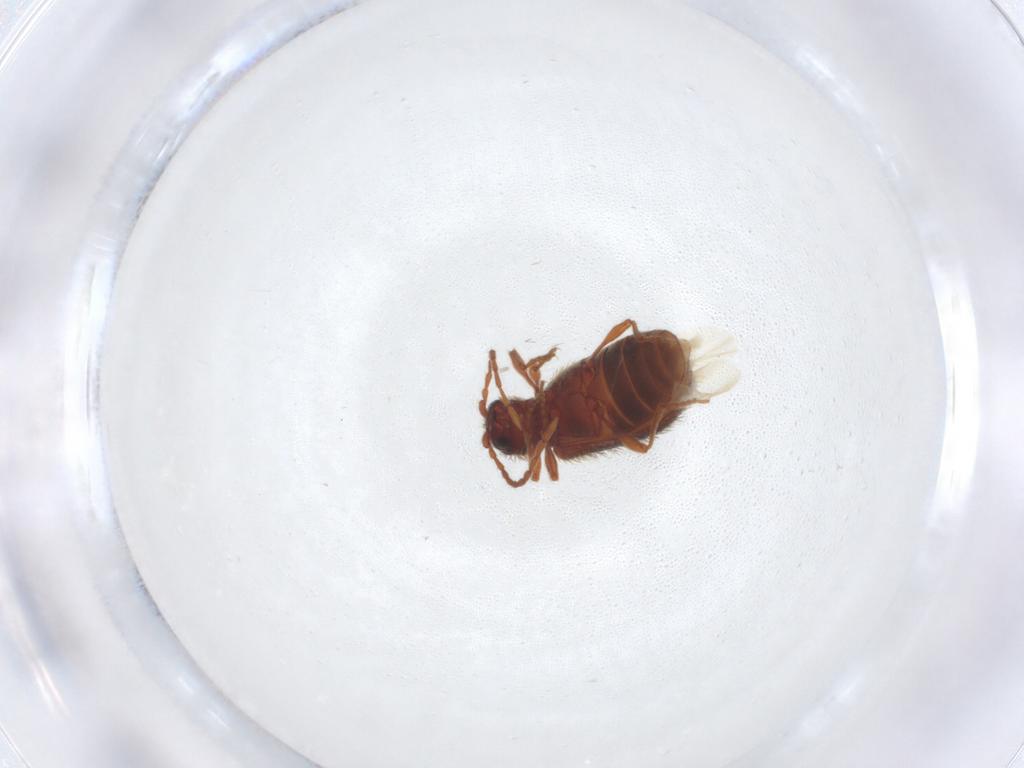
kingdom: Animalia
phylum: Arthropoda
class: Insecta
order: Coleoptera
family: Ptinidae
